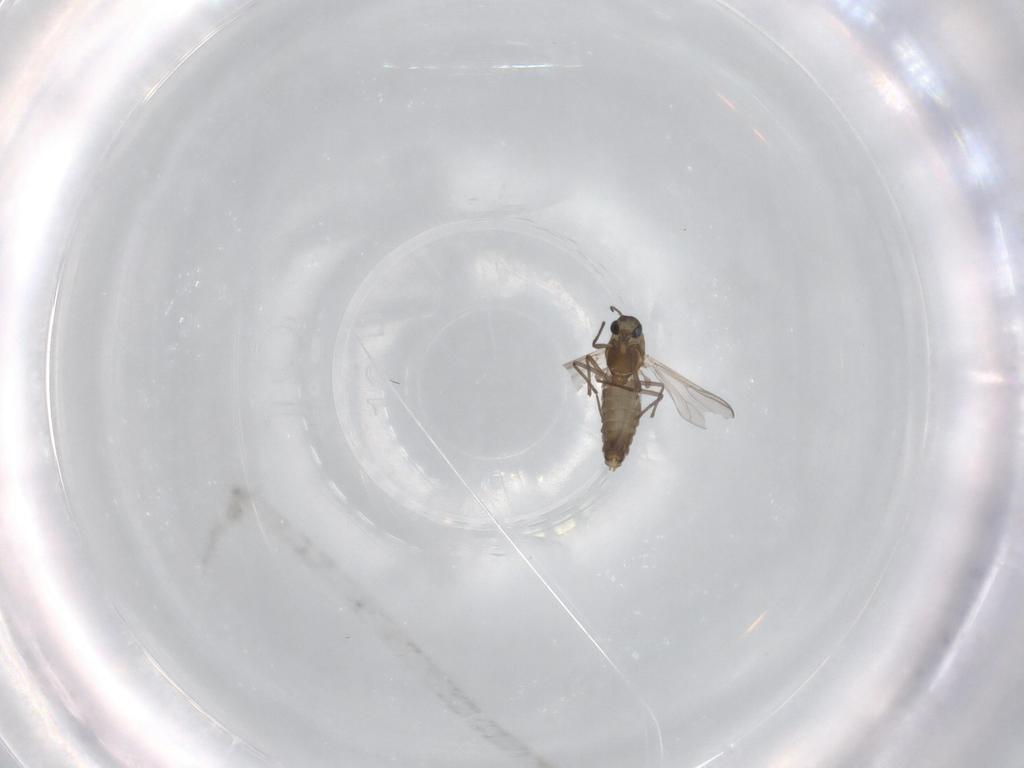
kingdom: Animalia
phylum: Arthropoda
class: Insecta
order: Diptera
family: Chironomidae
